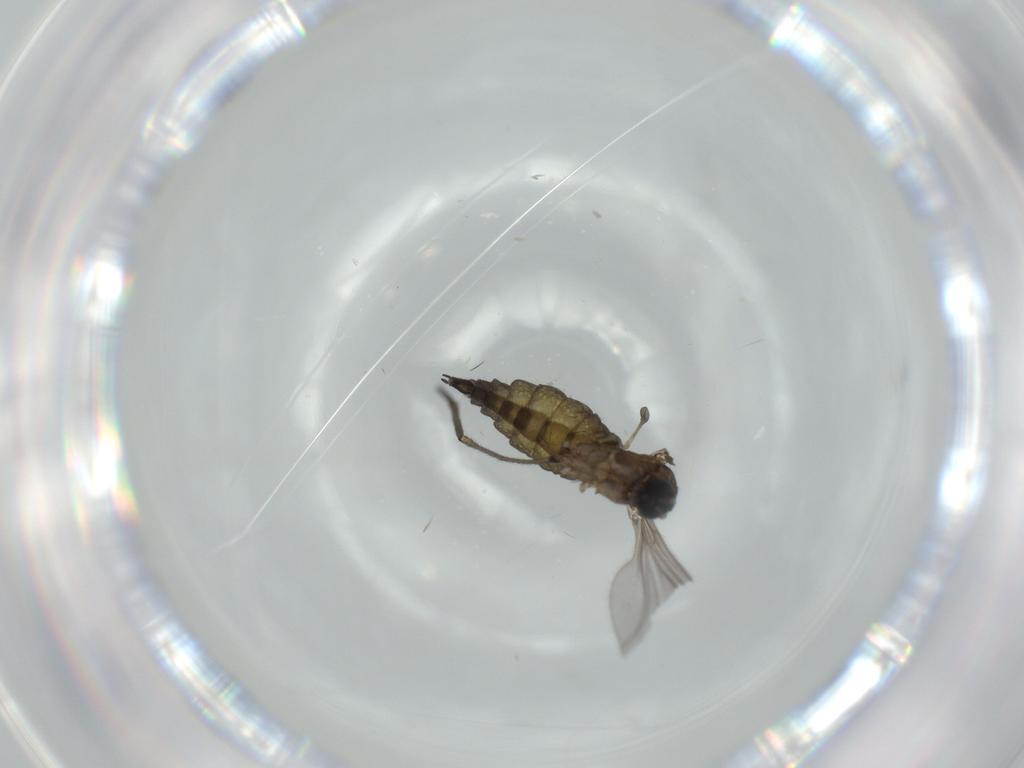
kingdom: Animalia
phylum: Arthropoda
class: Insecta
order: Diptera
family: Sciaridae
